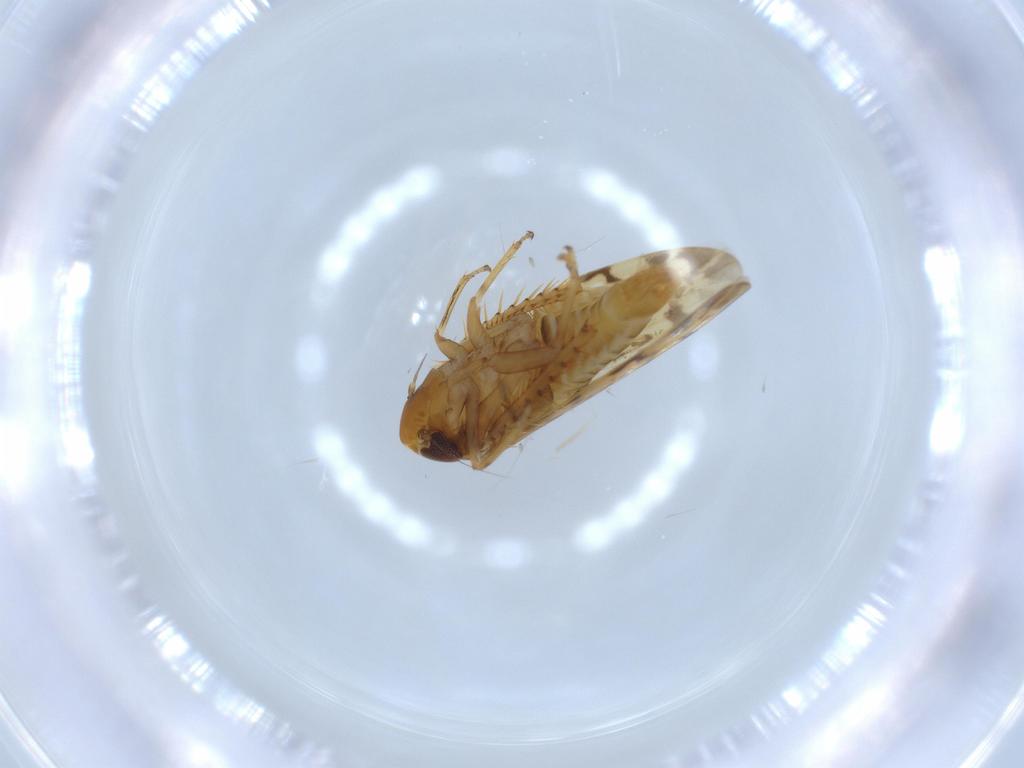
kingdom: Animalia
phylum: Arthropoda
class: Insecta
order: Hemiptera
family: Cicadellidae
